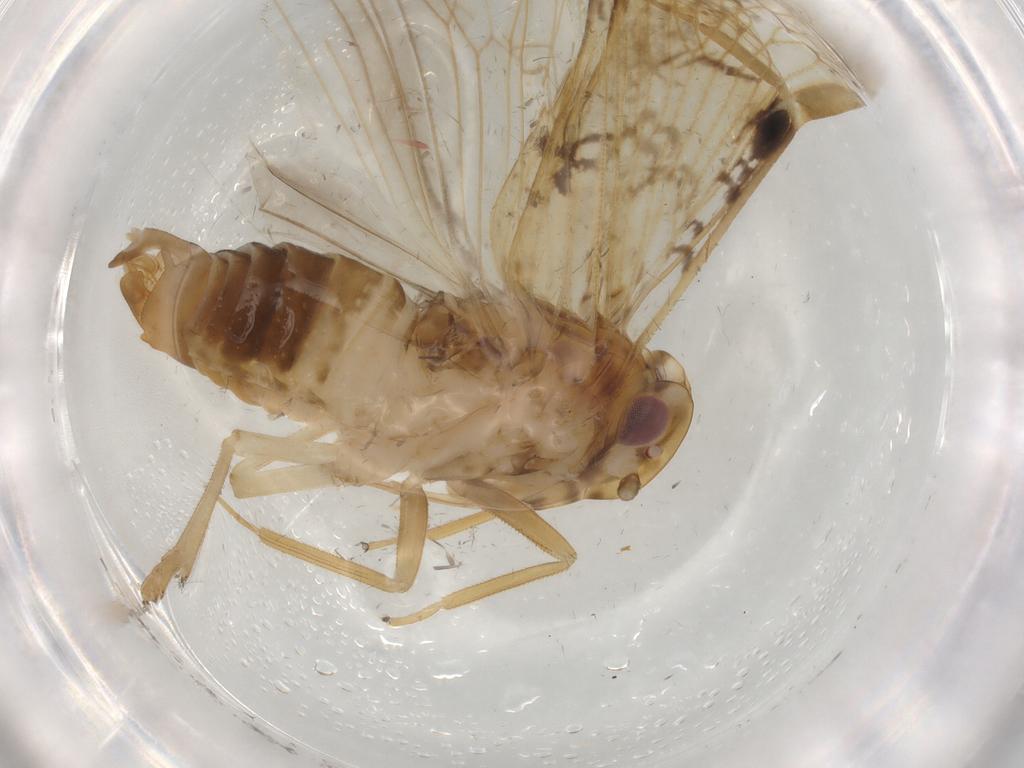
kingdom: Animalia
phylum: Arthropoda
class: Insecta
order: Hemiptera
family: Cixiidae
